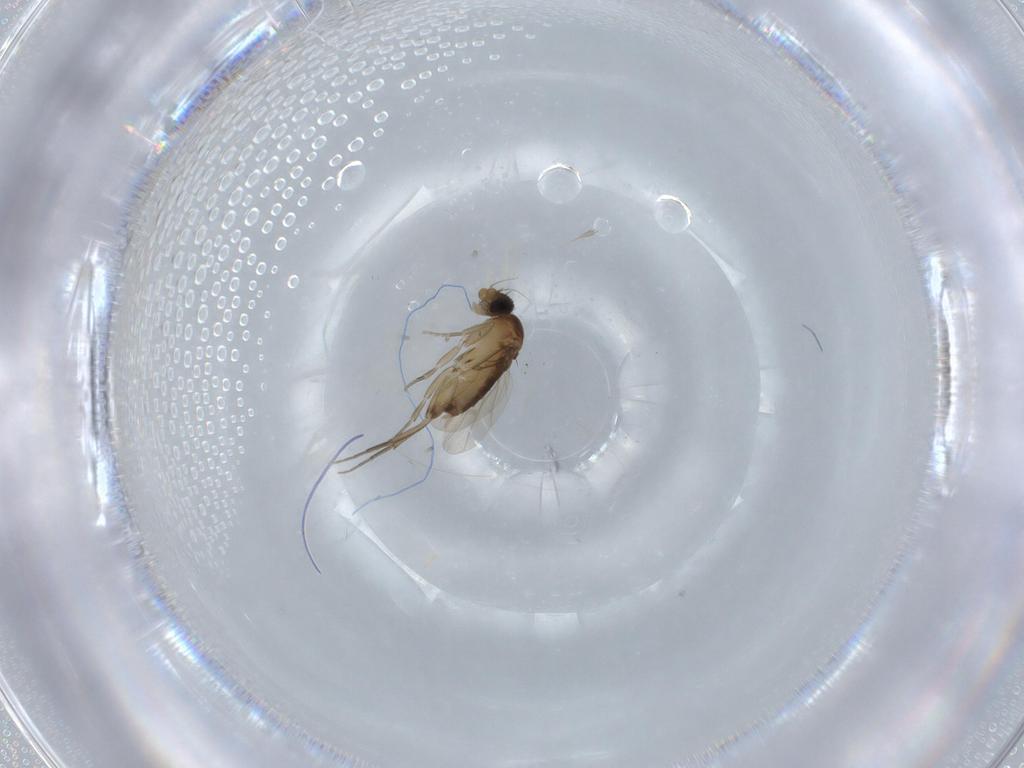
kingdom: Animalia
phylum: Arthropoda
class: Insecta
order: Diptera
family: Phoridae
